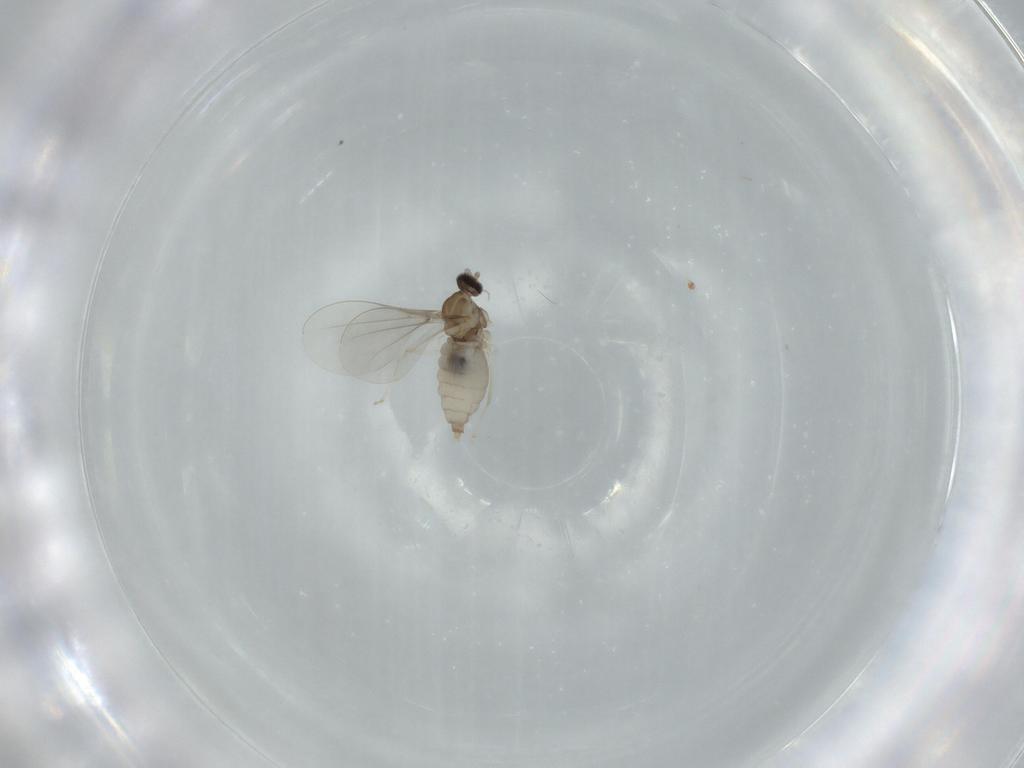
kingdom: Animalia
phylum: Arthropoda
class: Insecta
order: Diptera
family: Cecidomyiidae
